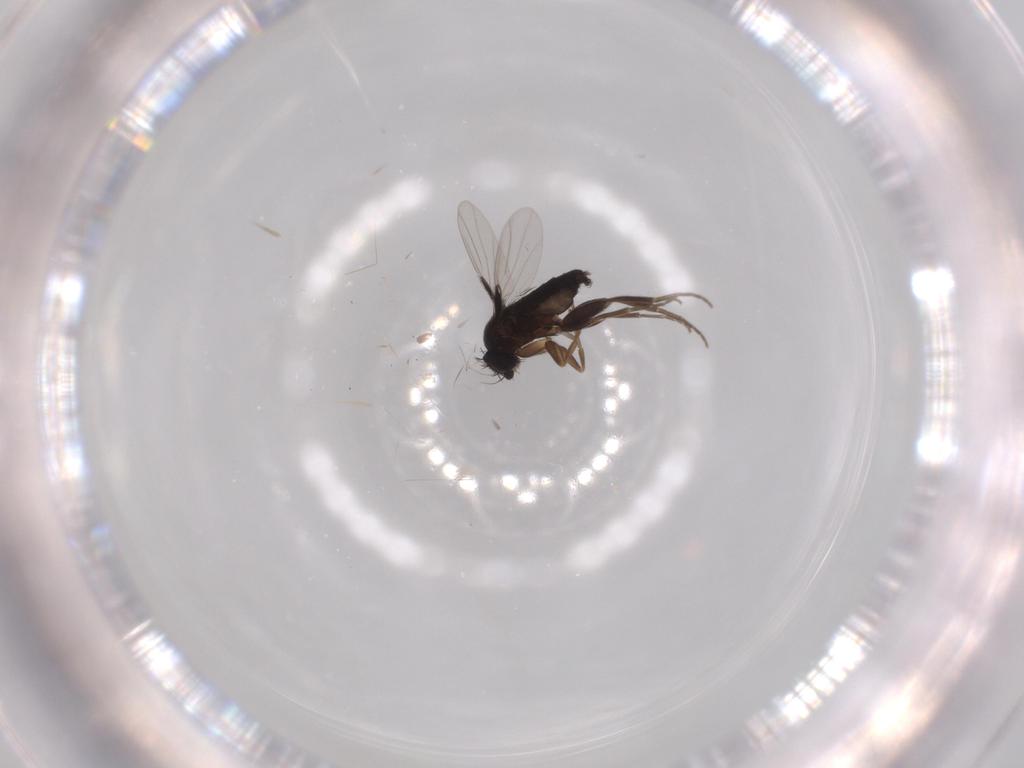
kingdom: Animalia
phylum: Arthropoda
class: Insecta
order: Diptera
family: Phoridae
